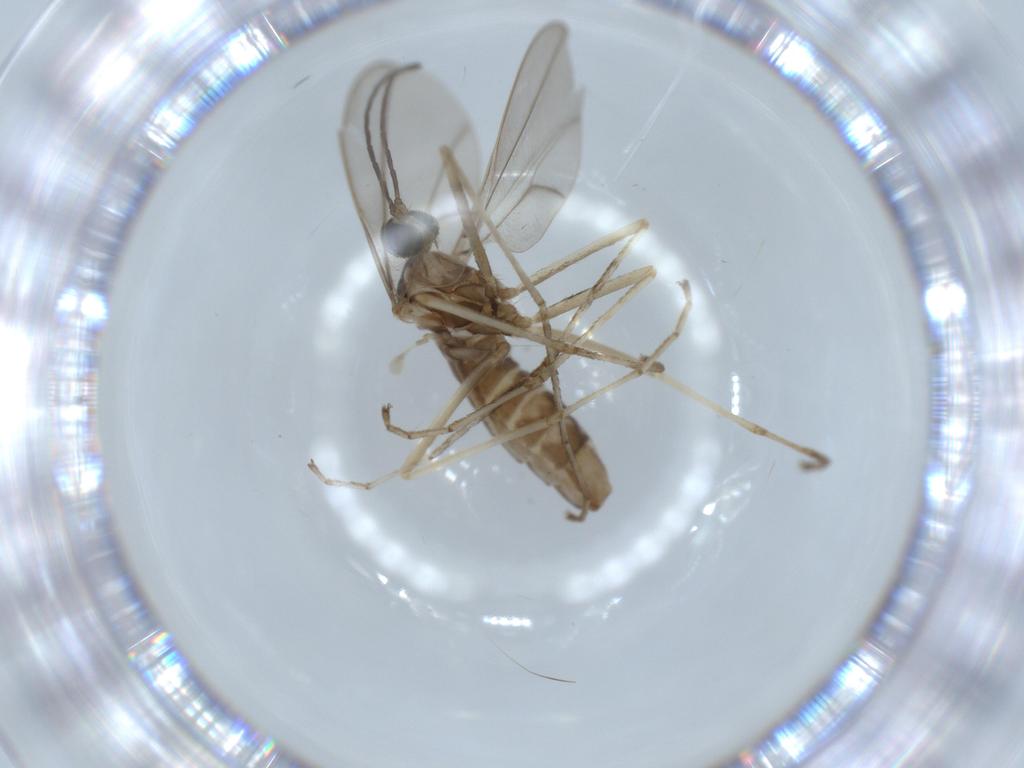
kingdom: Animalia
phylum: Arthropoda
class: Insecta
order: Diptera
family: Cecidomyiidae
